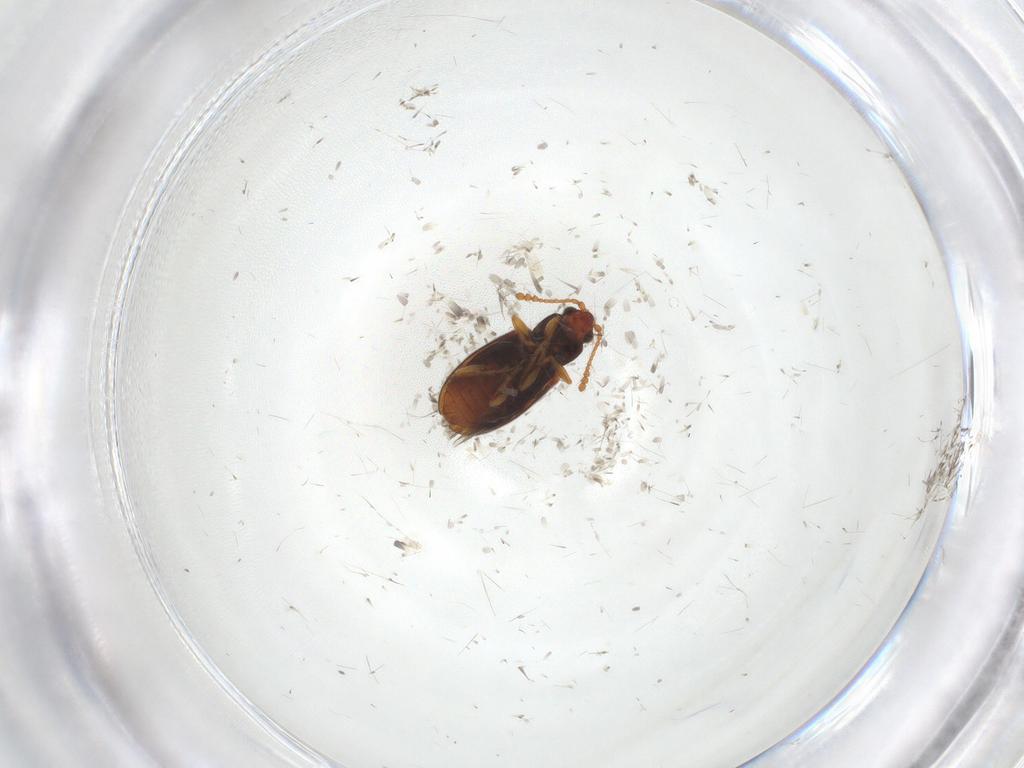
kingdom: Animalia
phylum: Arthropoda
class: Insecta
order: Coleoptera
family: Cryptophagidae
